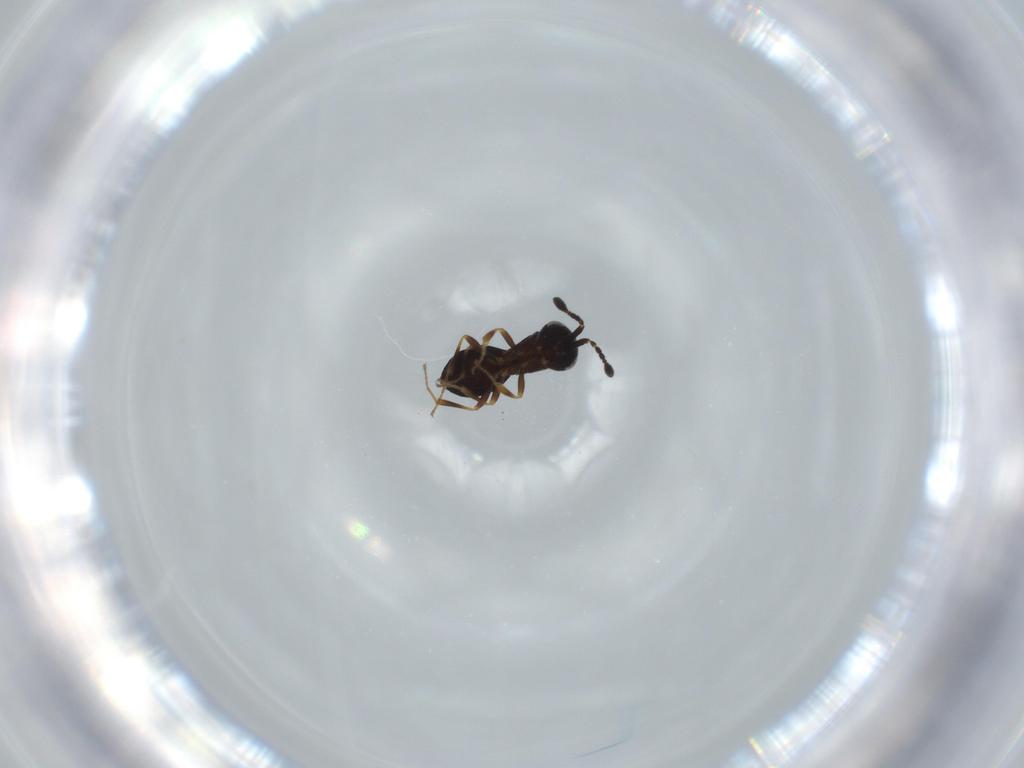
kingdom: Animalia
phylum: Arthropoda
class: Insecta
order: Hymenoptera
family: Scelionidae
